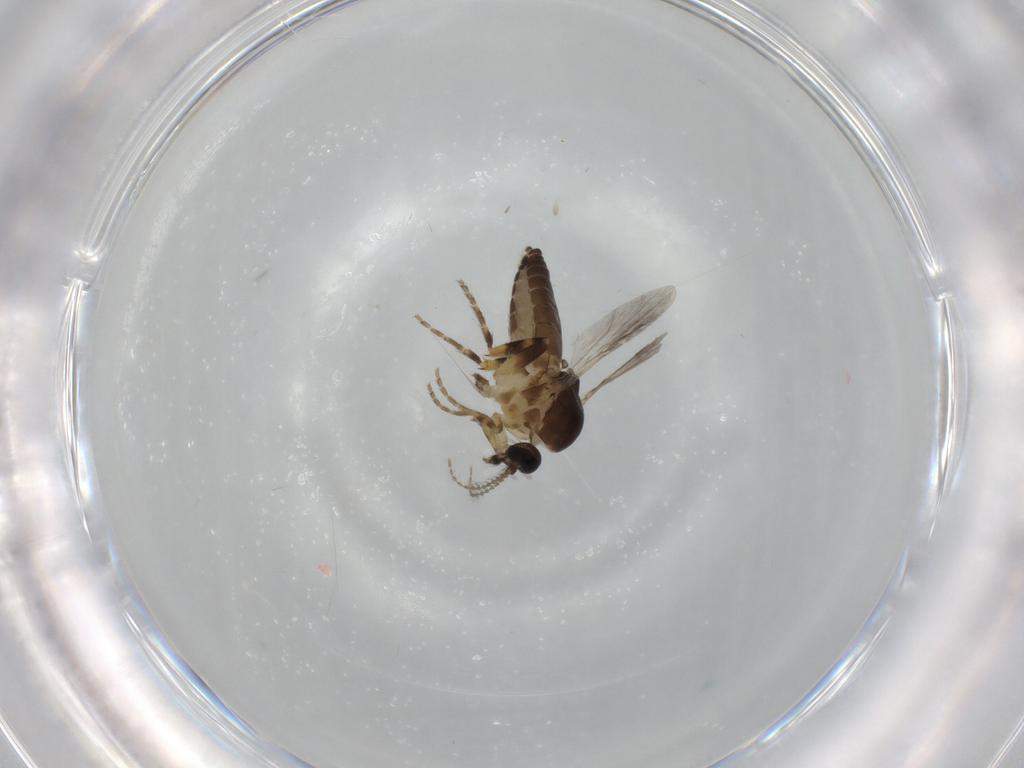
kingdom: Animalia
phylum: Arthropoda
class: Insecta
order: Diptera
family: Ceratopogonidae
